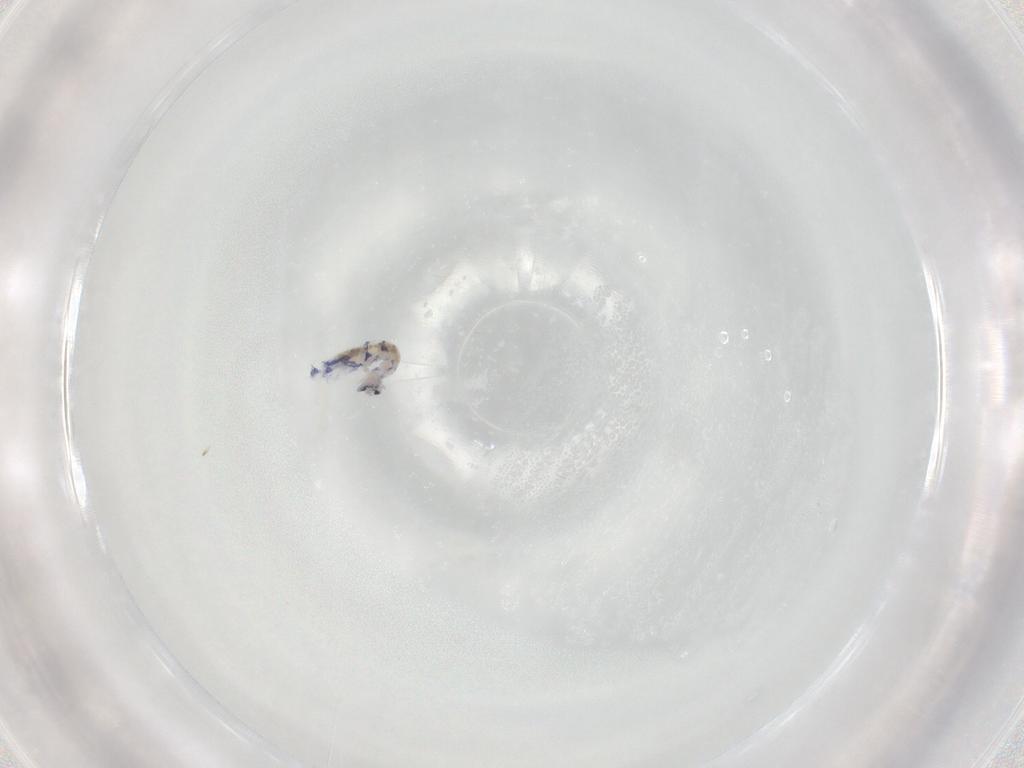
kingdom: Animalia
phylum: Arthropoda
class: Collembola
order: Entomobryomorpha
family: Entomobryidae
